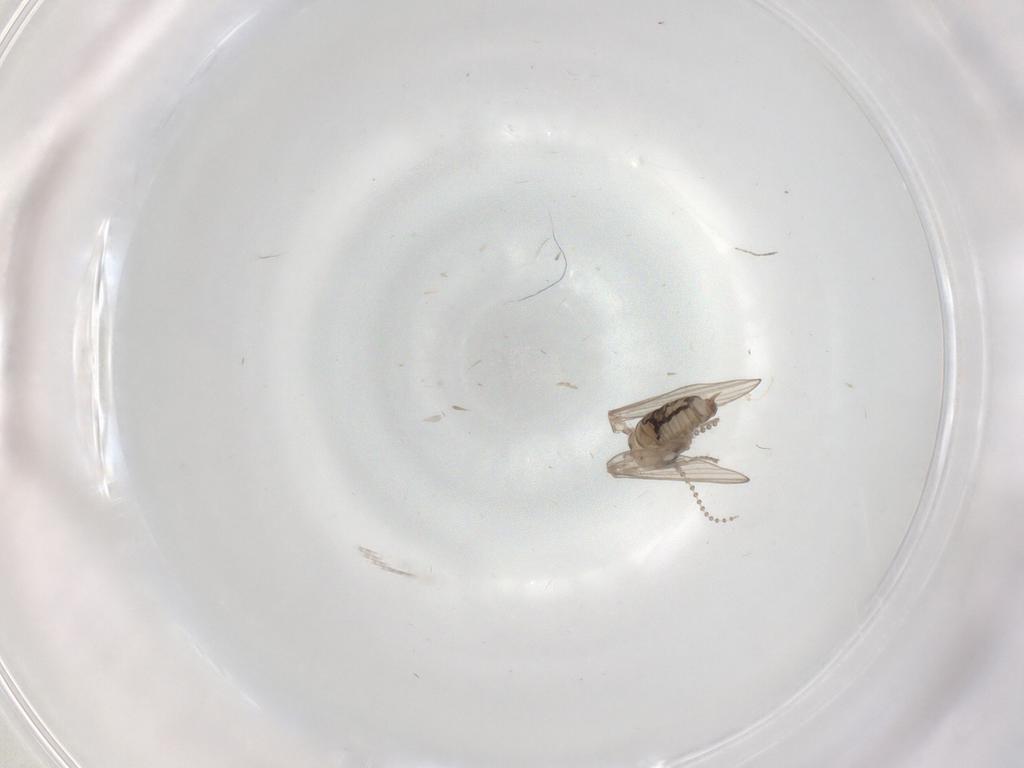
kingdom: Animalia
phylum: Arthropoda
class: Insecta
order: Diptera
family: Psychodidae
